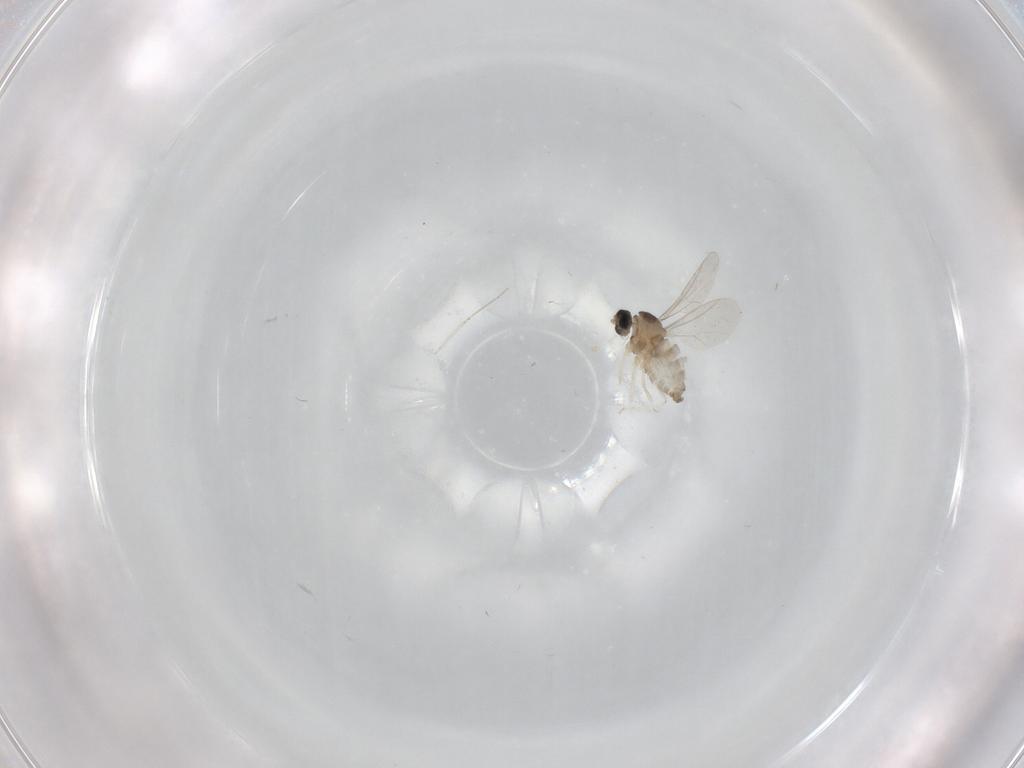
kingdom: Animalia
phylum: Arthropoda
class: Insecta
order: Diptera
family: Cecidomyiidae
